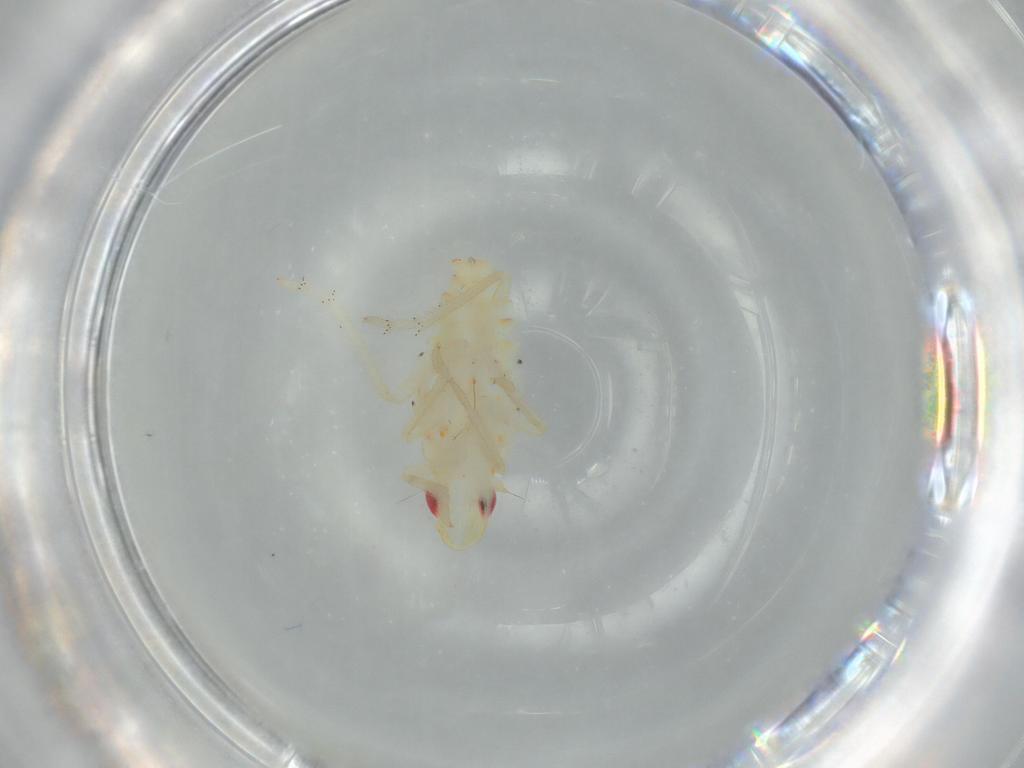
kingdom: Animalia
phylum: Arthropoda
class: Insecta
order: Hemiptera
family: Tropiduchidae
